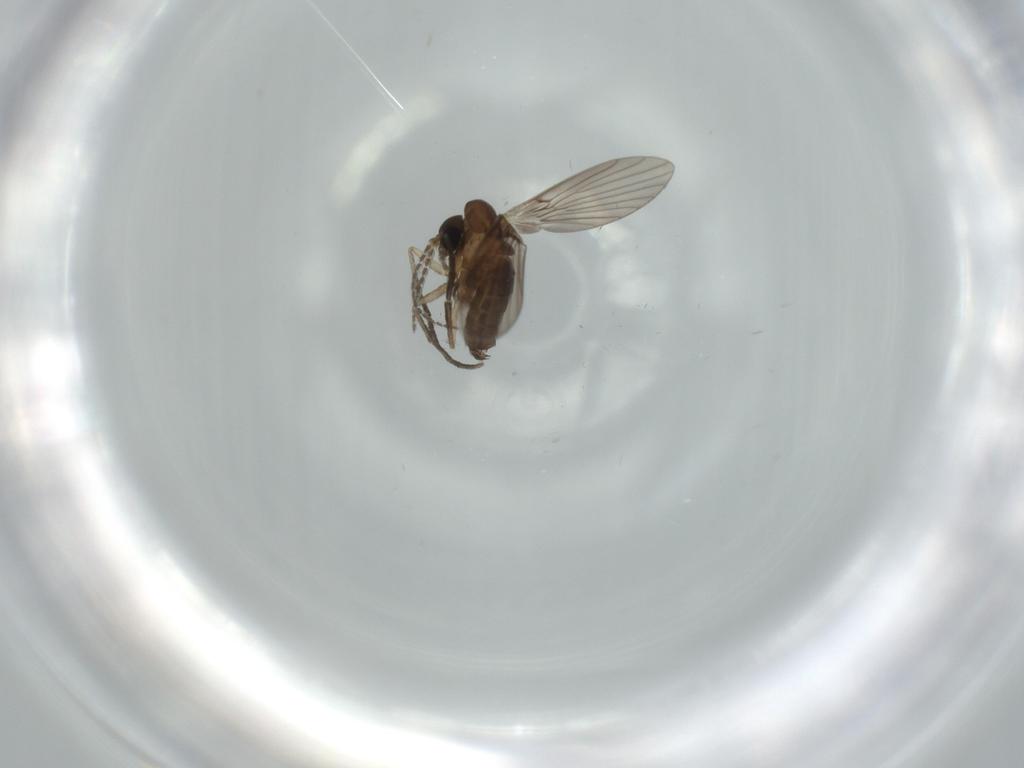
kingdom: Animalia
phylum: Arthropoda
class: Insecta
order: Diptera
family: Psychodidae
